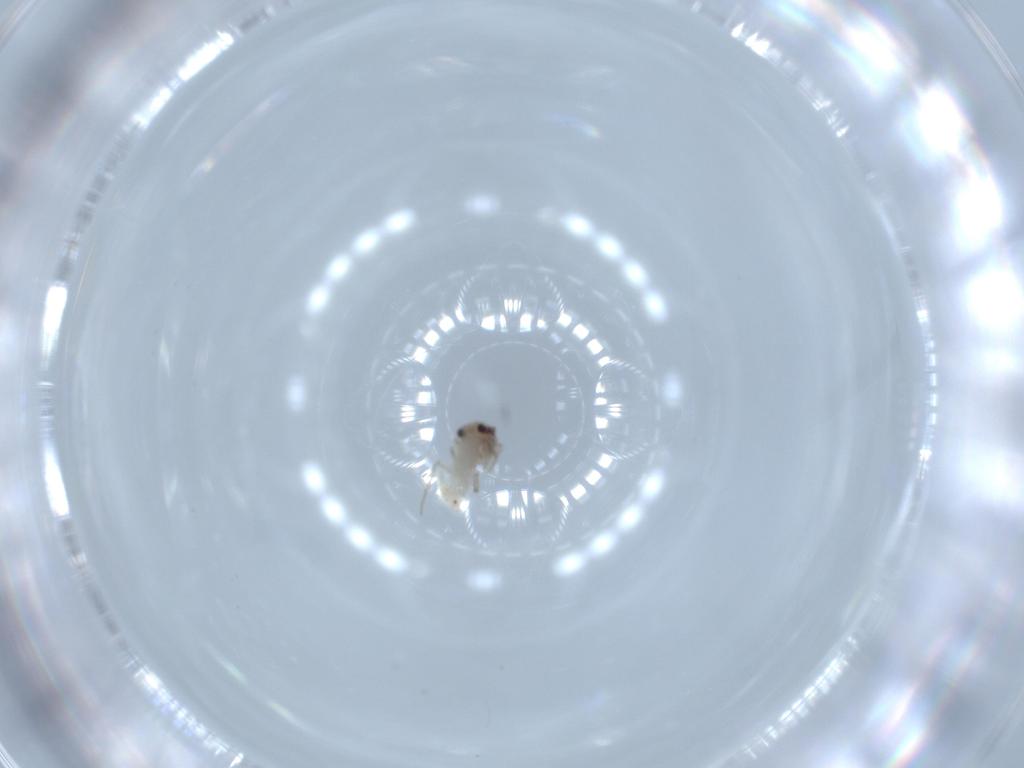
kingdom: Animalia
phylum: Arthropoda
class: Insecta
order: Psocodea
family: Lepidopsocidae
